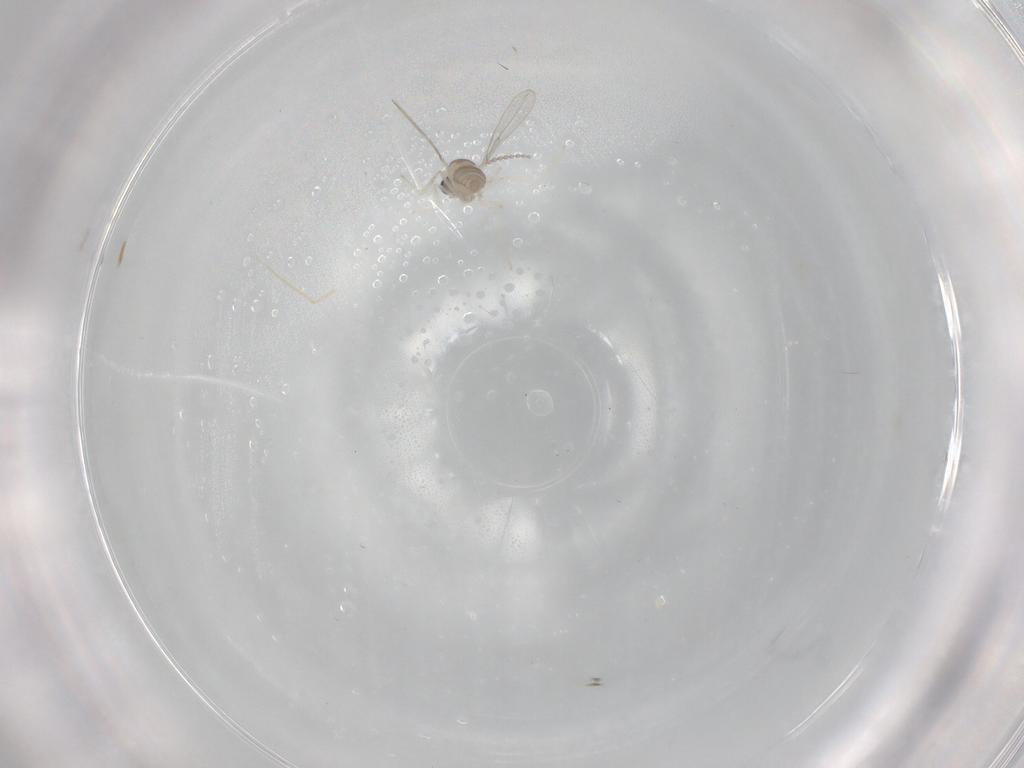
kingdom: Animalia
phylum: Arthropoda
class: Insecta
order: Diptera
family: Cecidomyiidae
